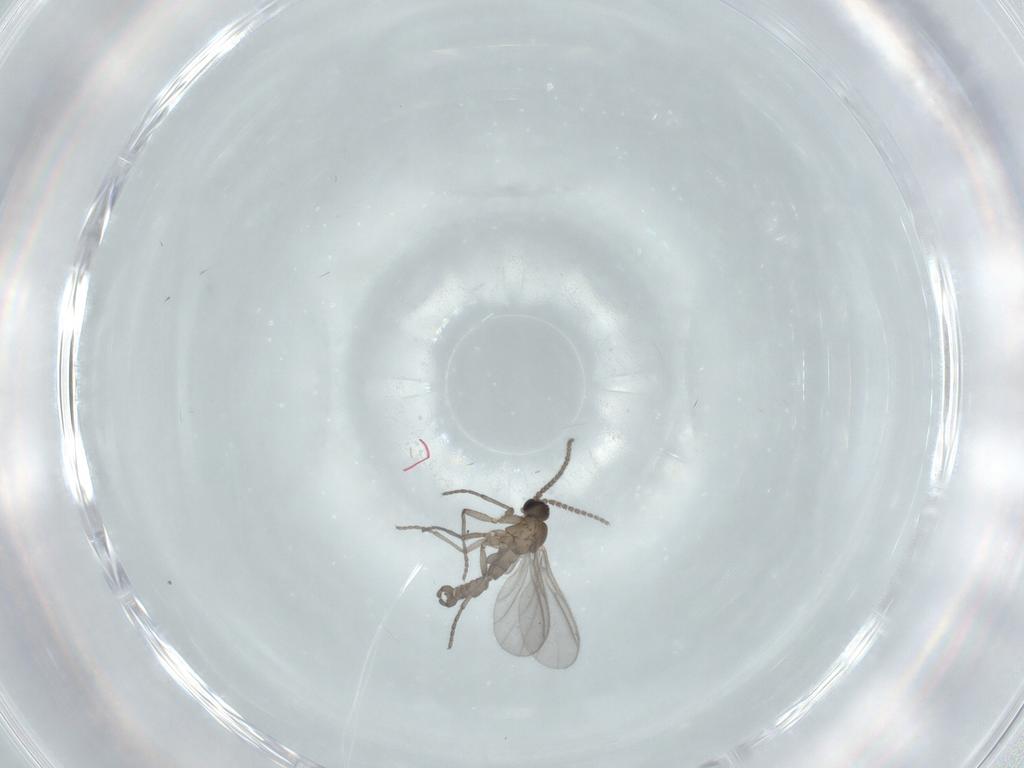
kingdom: Animalia
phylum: Arthropoda
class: Insecta
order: Diptera
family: Sciaridae
